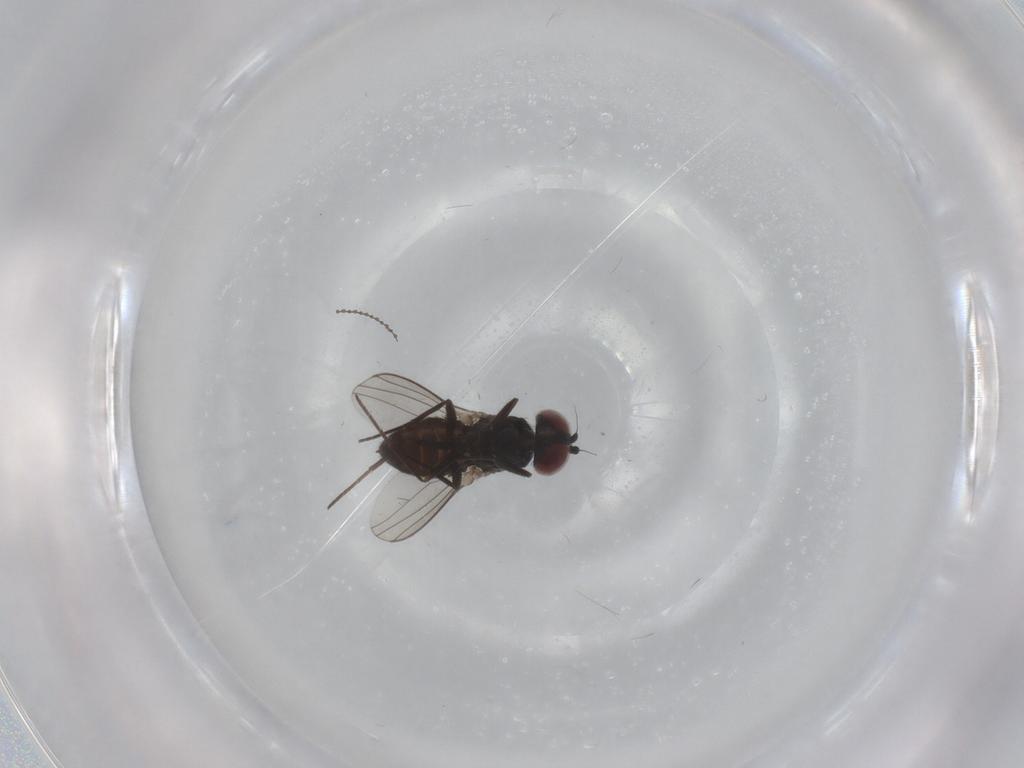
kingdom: Animalia
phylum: Arthropoda
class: Insecta
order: Diptera
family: Dolichopodidae
